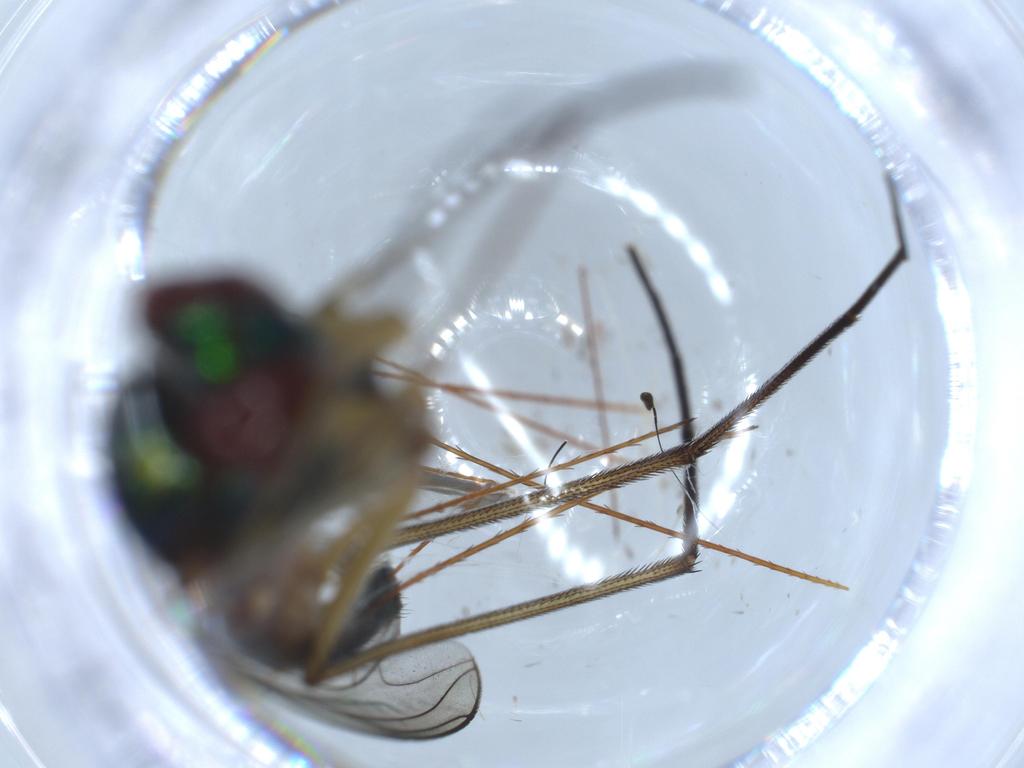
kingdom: Animalia
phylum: Arthropoda
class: Insecta
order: Diptera
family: Dolichopodidae
